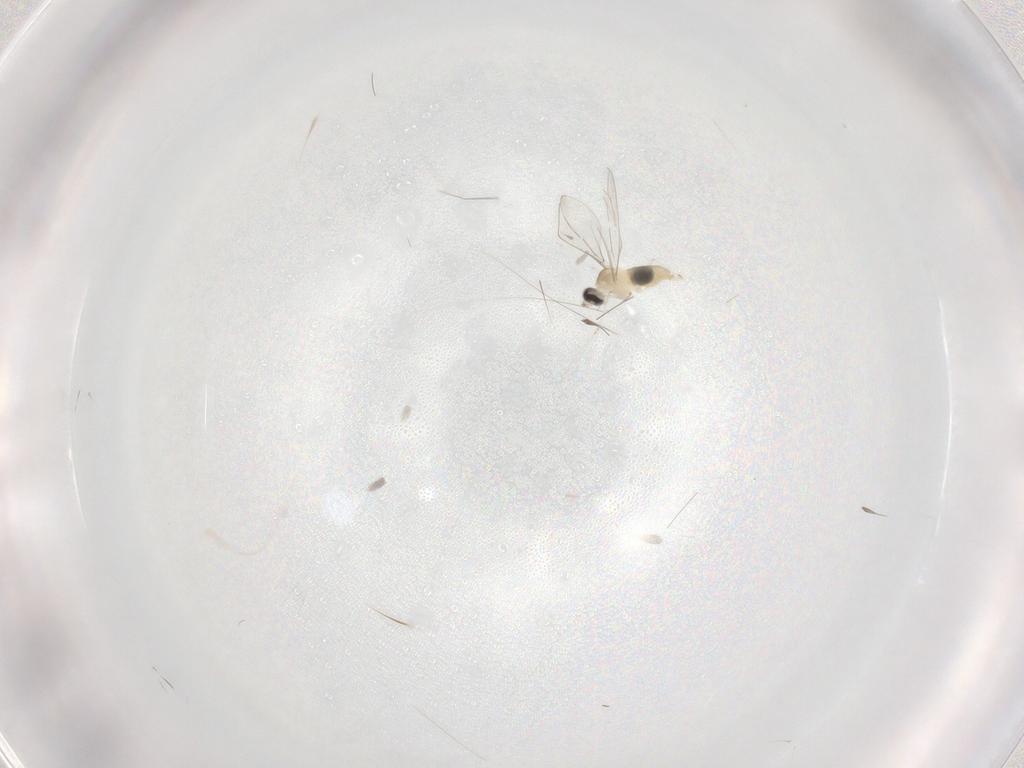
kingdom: Animalia
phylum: Arthropoda
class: Insecta
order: Diptera
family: Cecidomyiidae
